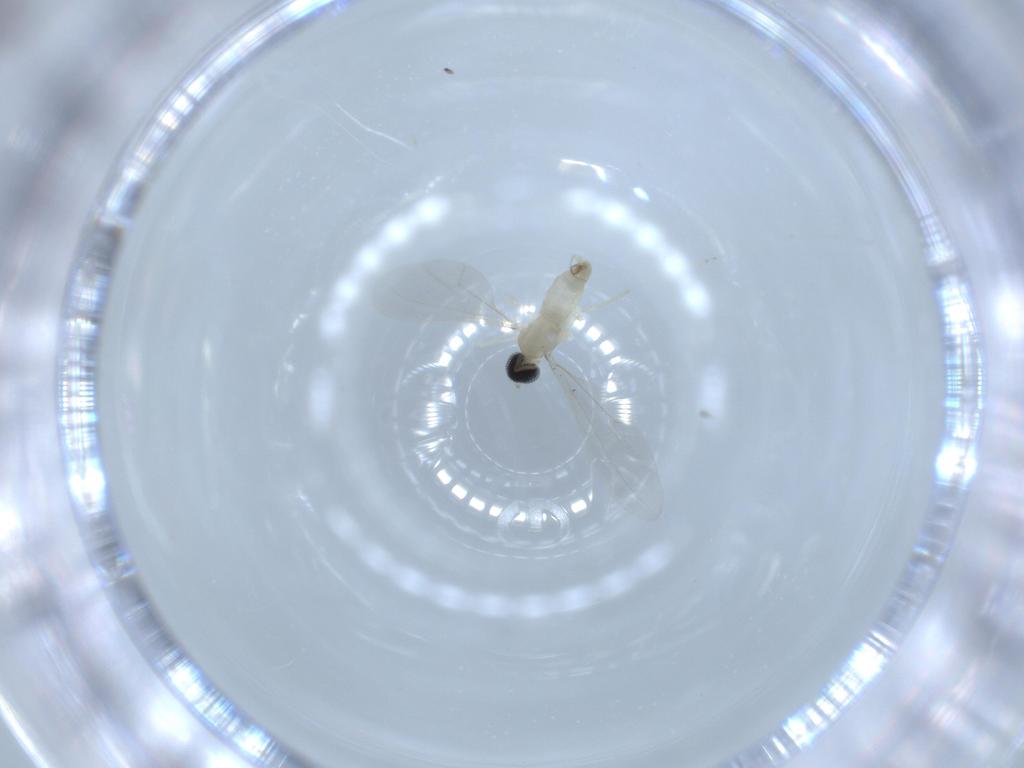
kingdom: Animalia
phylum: Arthropoda
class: Insecta
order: Diptera
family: Cecidomyiidae
